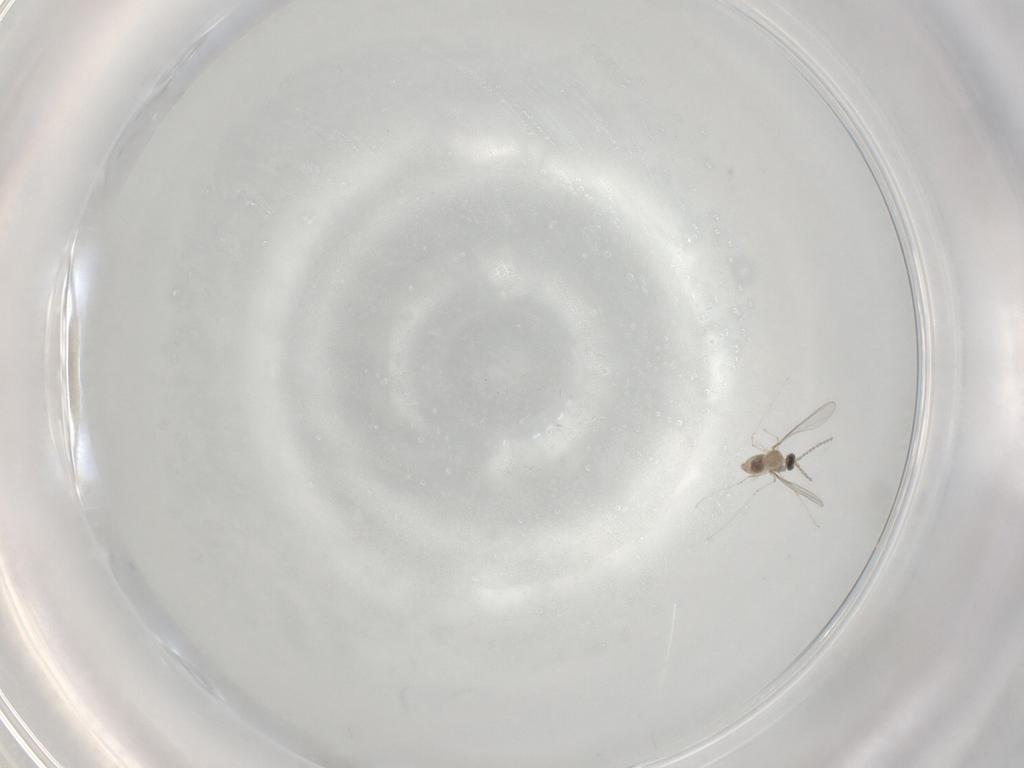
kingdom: Animalia
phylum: Arthropoda
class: Insecta
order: Diptera
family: Cecidomyiidae
